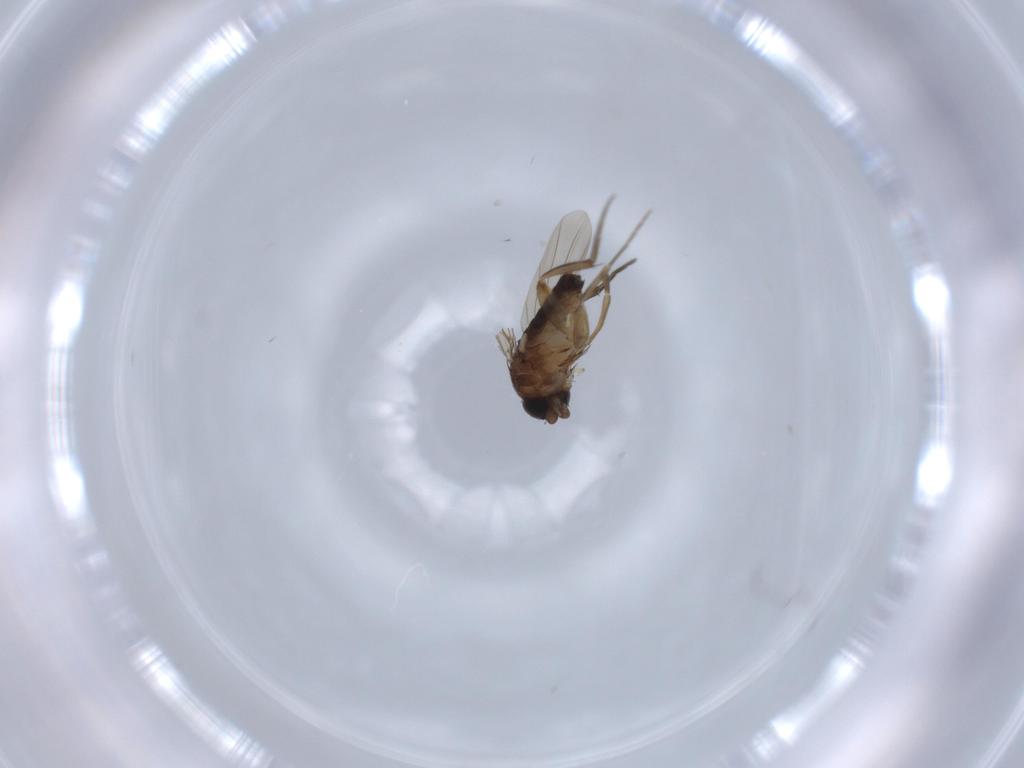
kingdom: Animalia
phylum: Arthropoda
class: Insecta
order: Diptera
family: Phoridae
